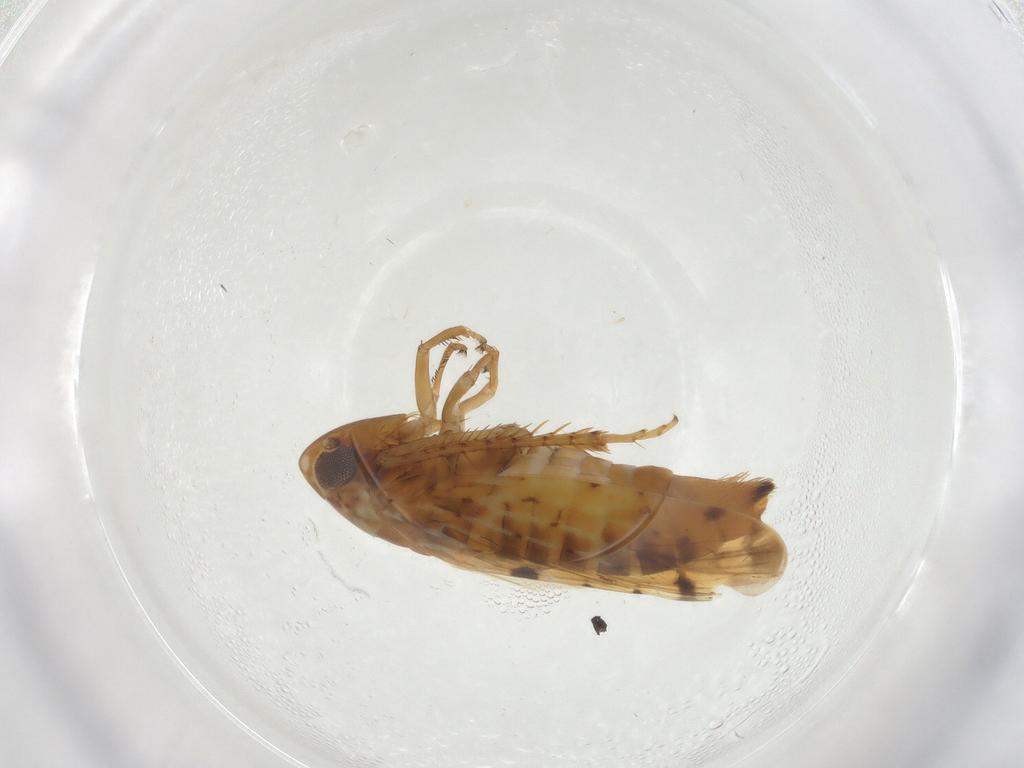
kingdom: Animalia
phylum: Arthropoda
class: Insecta
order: Hemiptera
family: Cicadellidae
